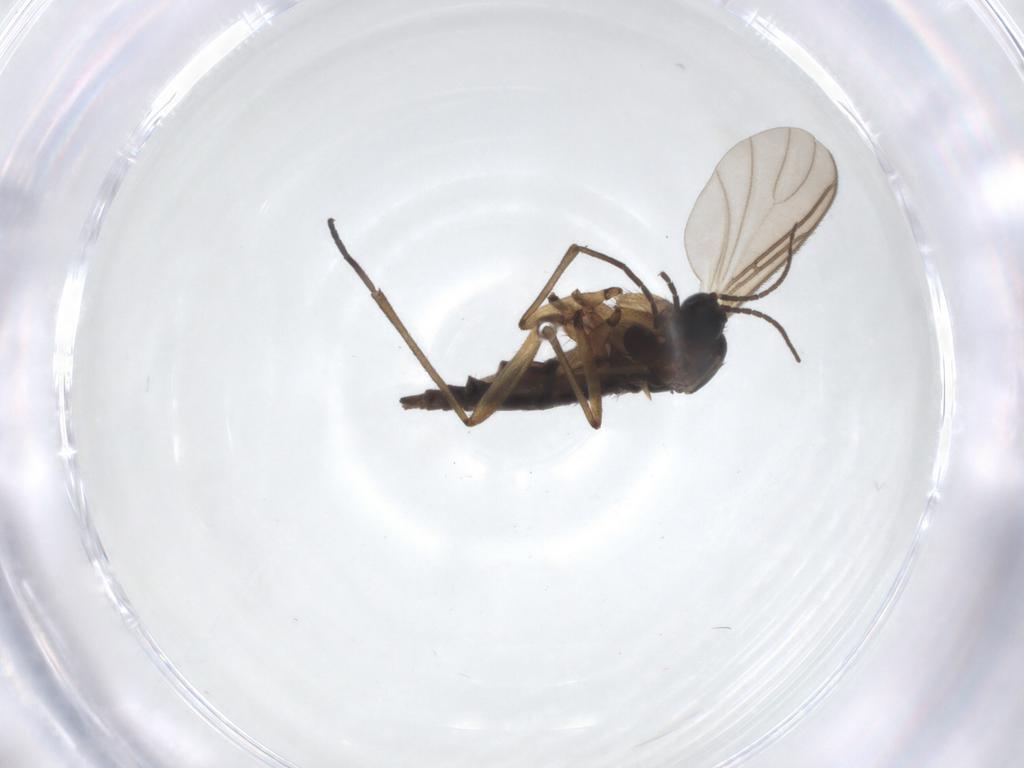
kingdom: Animalia
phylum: Arthropoda
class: Insecta
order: Diptera
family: Sciaridae
